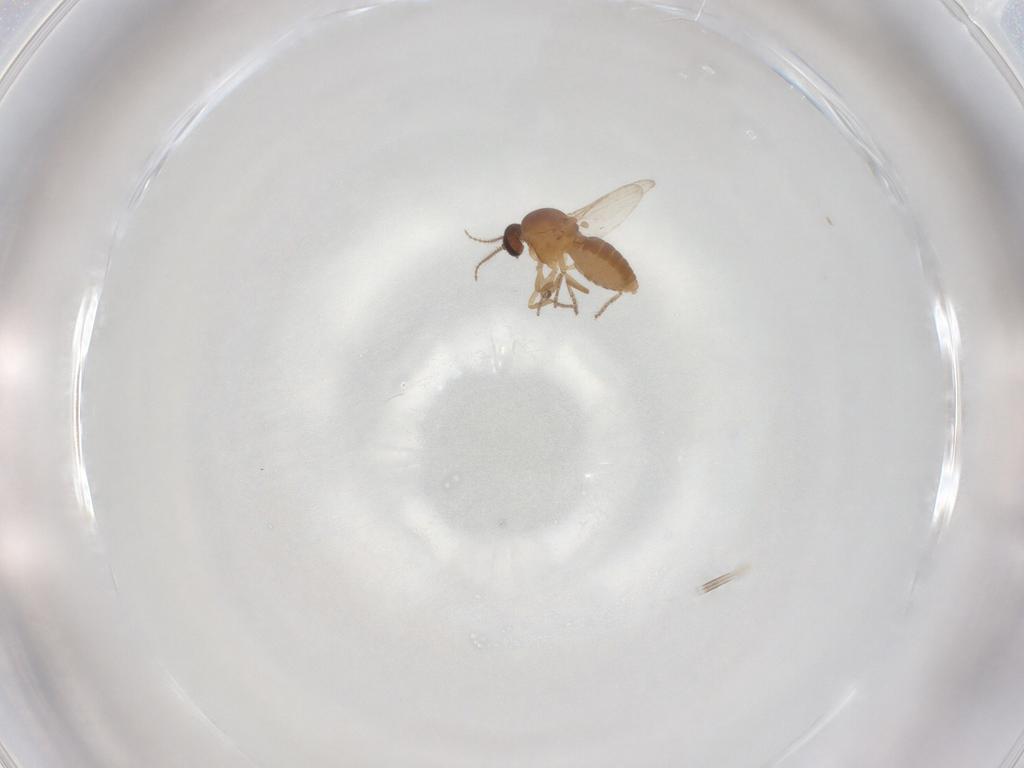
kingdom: Animalia
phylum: Arthropoda
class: Insecta
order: Diptera
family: Ceratopogonidae
